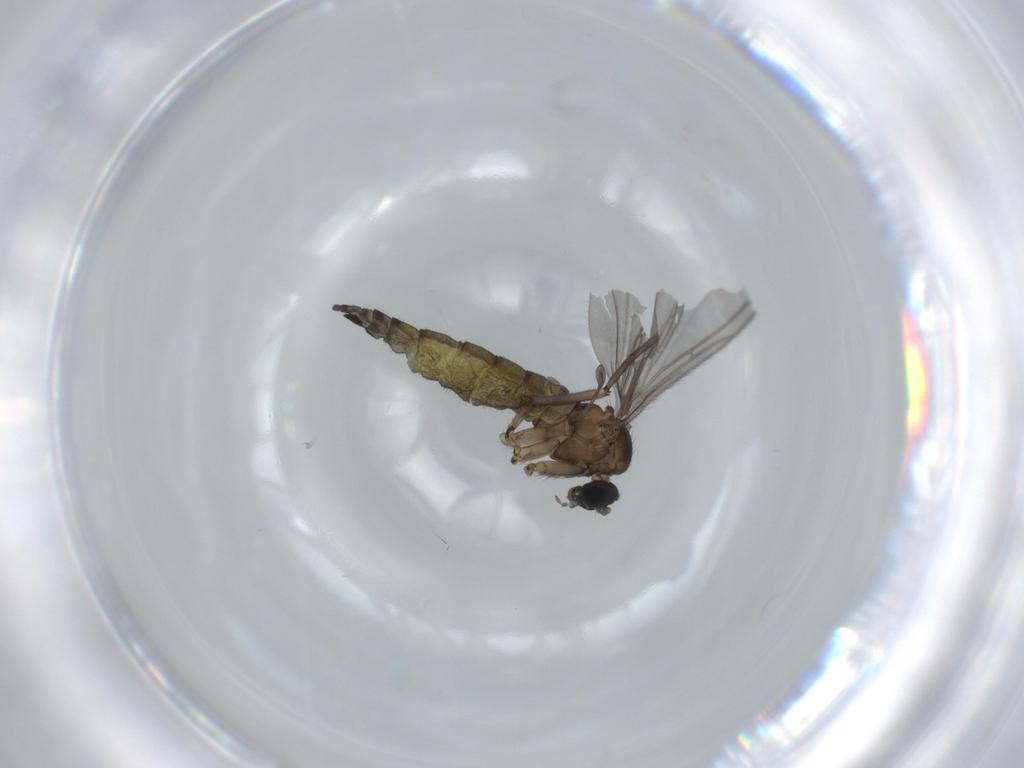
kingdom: Animalia
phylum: Arthropoda
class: Insecta
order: Diptera
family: Sciaridae
